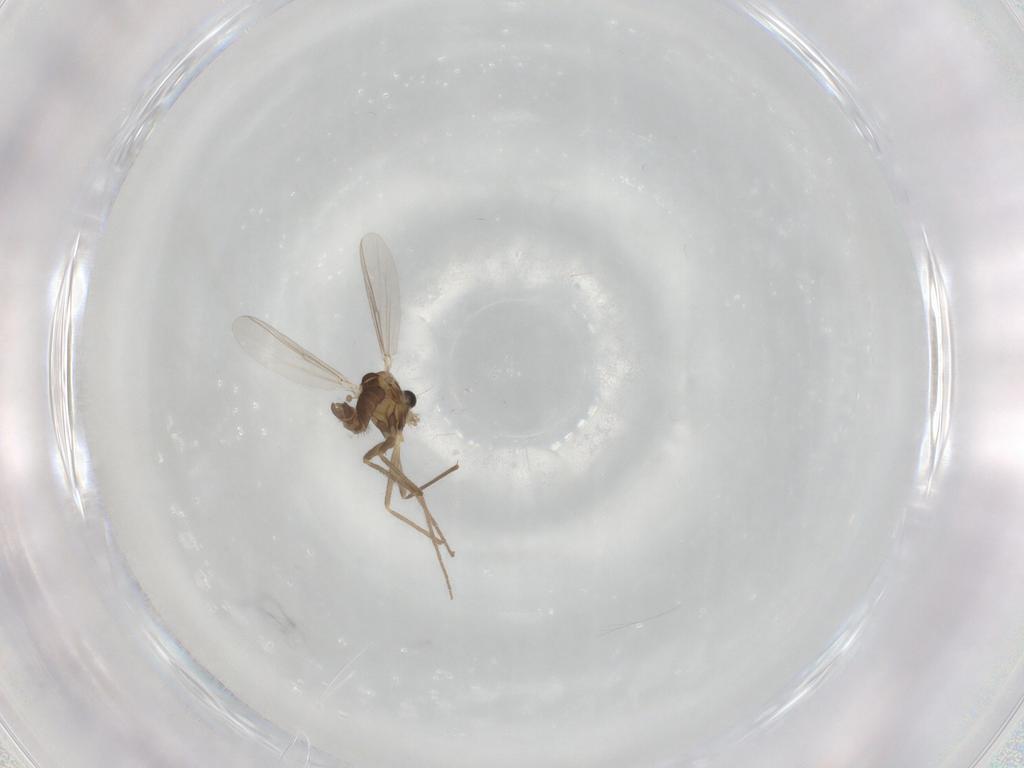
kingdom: Animalia
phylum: Arthropoda
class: Insecta
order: Diptera
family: Chironomidae
